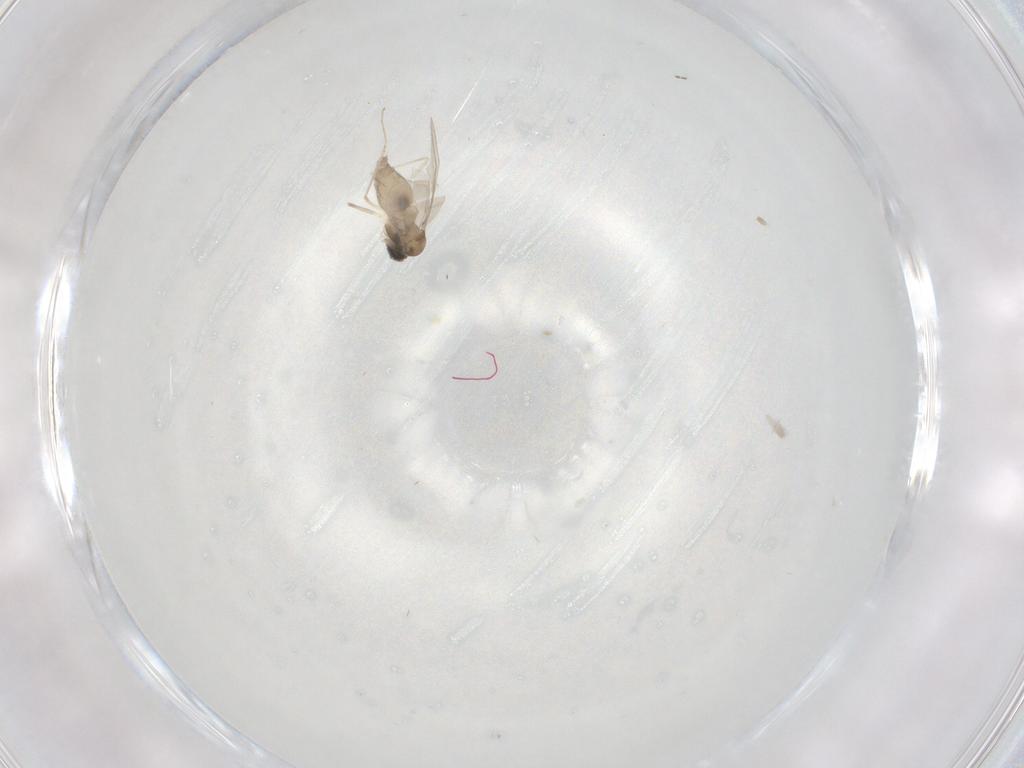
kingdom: Animalia
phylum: Arthropoda
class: Insecta
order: Diptera
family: Cecidomyiidae
